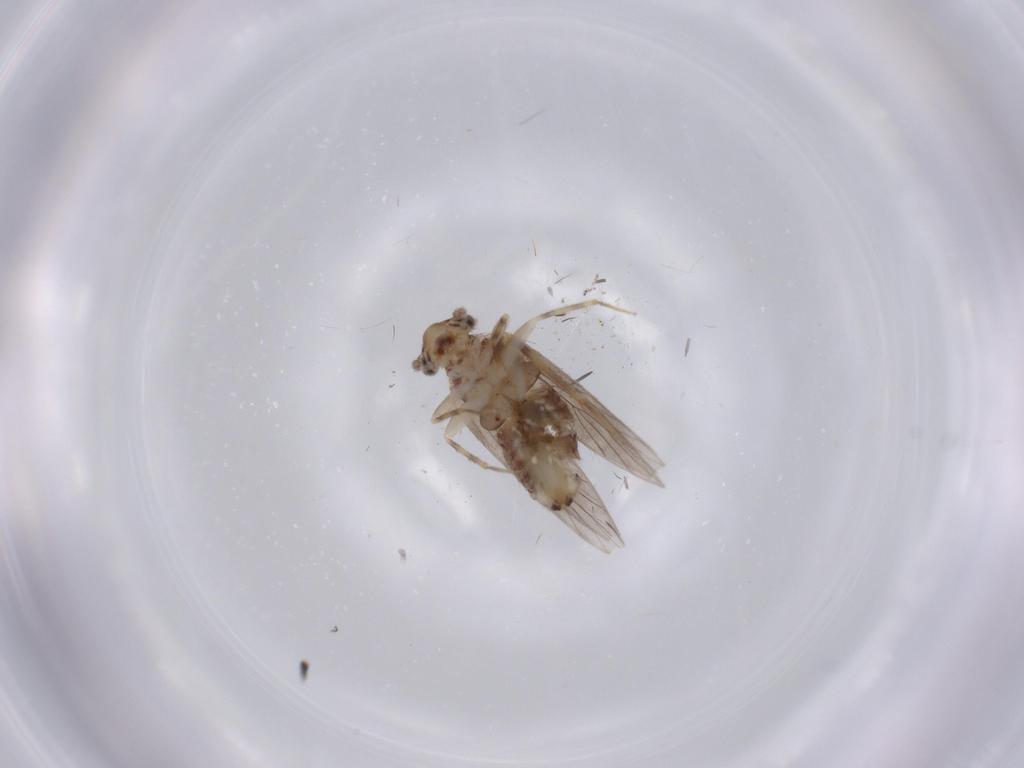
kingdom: Animalia
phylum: Arthropoda
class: Insecta
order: Psocodea
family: Lepidopsocidae
